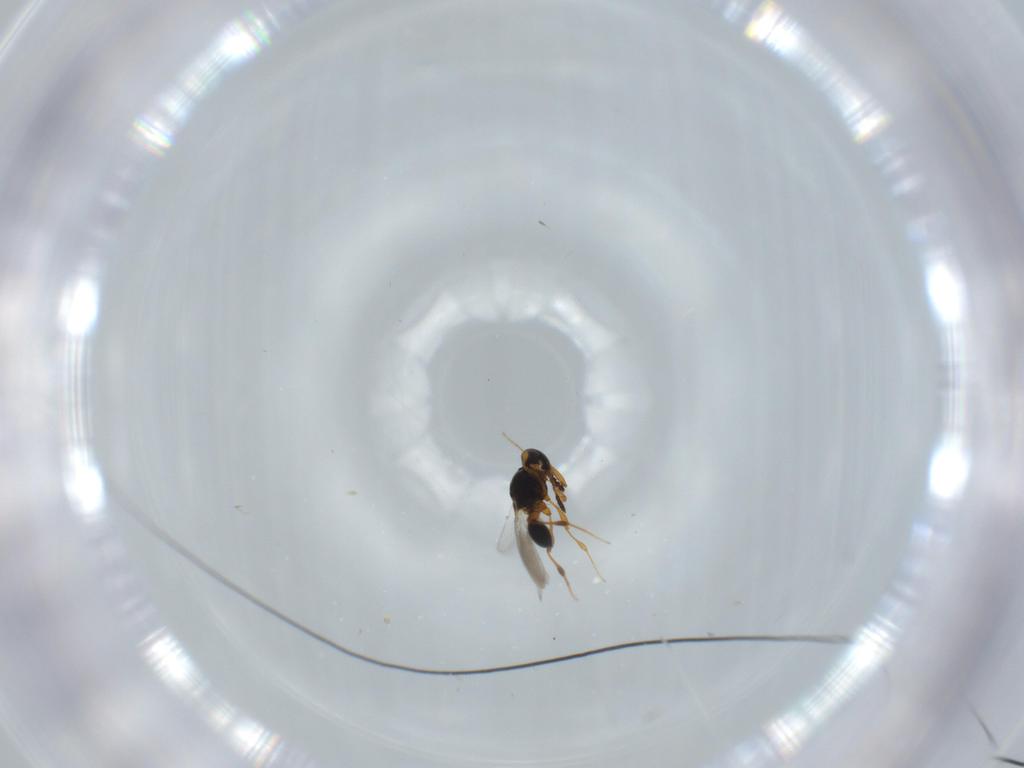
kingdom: Animalia
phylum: Arthropoda
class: Insecta
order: Hymenoptera
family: Platygastridae
